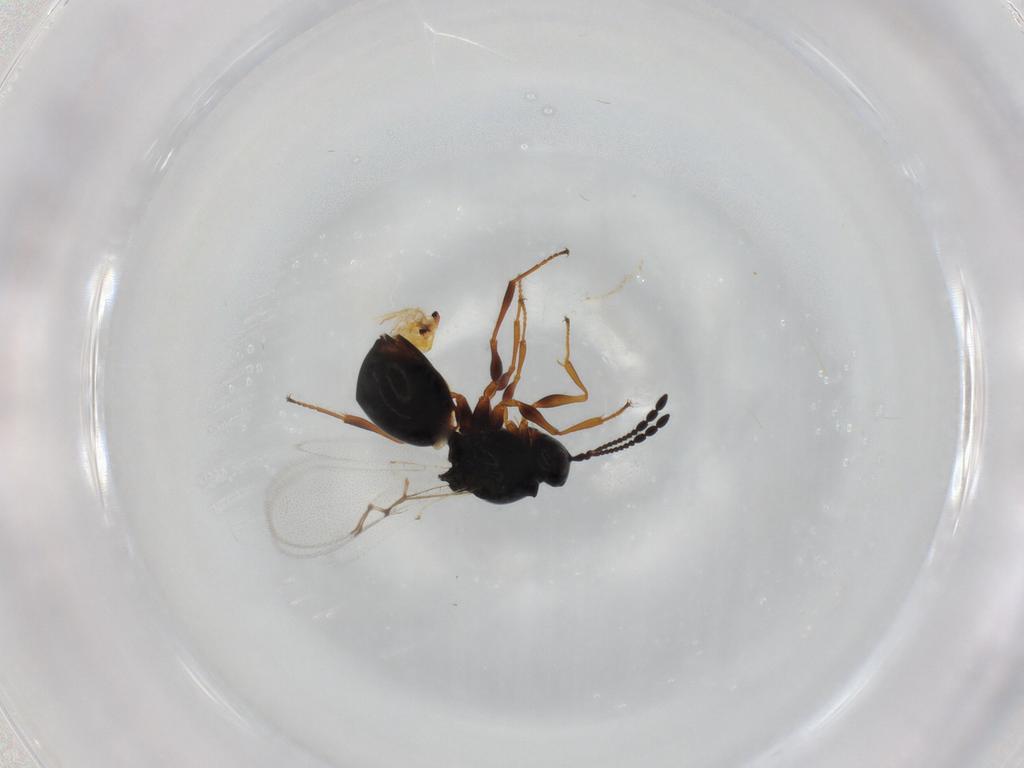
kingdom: Animalia
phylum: Arthropoda
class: Insecta
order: Hymenoptera
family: Figitidae
